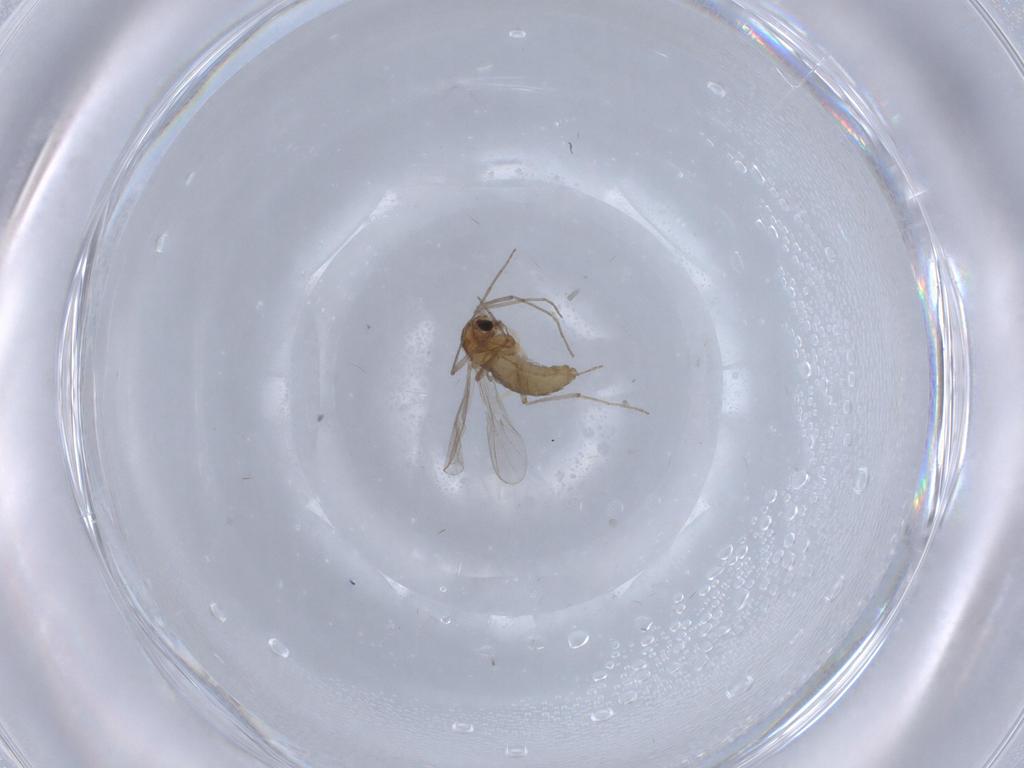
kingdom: Animalia
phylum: Arthropoda
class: Insecta
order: Diptera
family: Chironomidae
